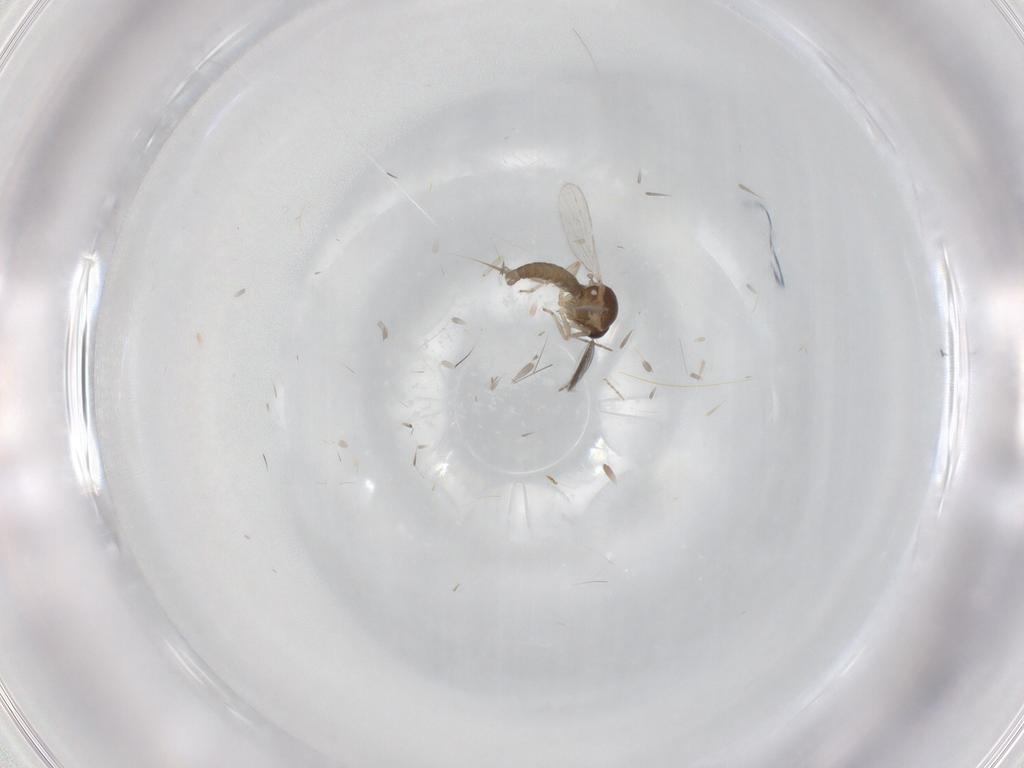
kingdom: Animalia
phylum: Arthropoda
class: Insecta
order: Diptera
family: Ceratopogonidae
